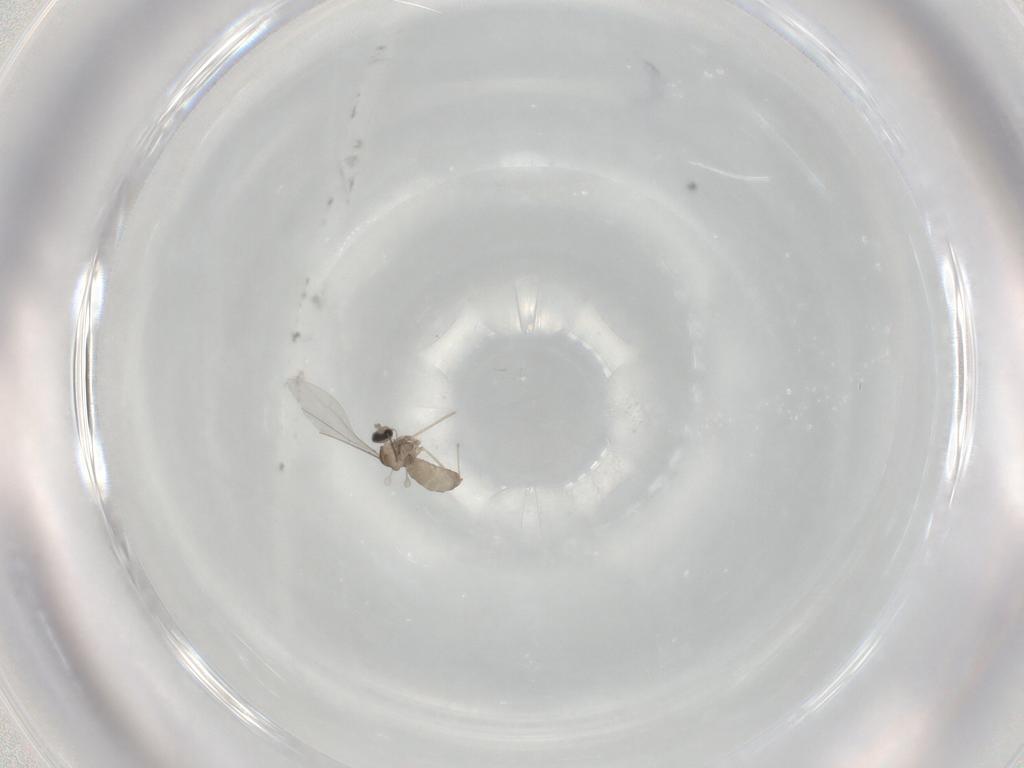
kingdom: Animalia
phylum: Arthropoda
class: Insecta
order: Diptera
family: Cecidomyiidae
